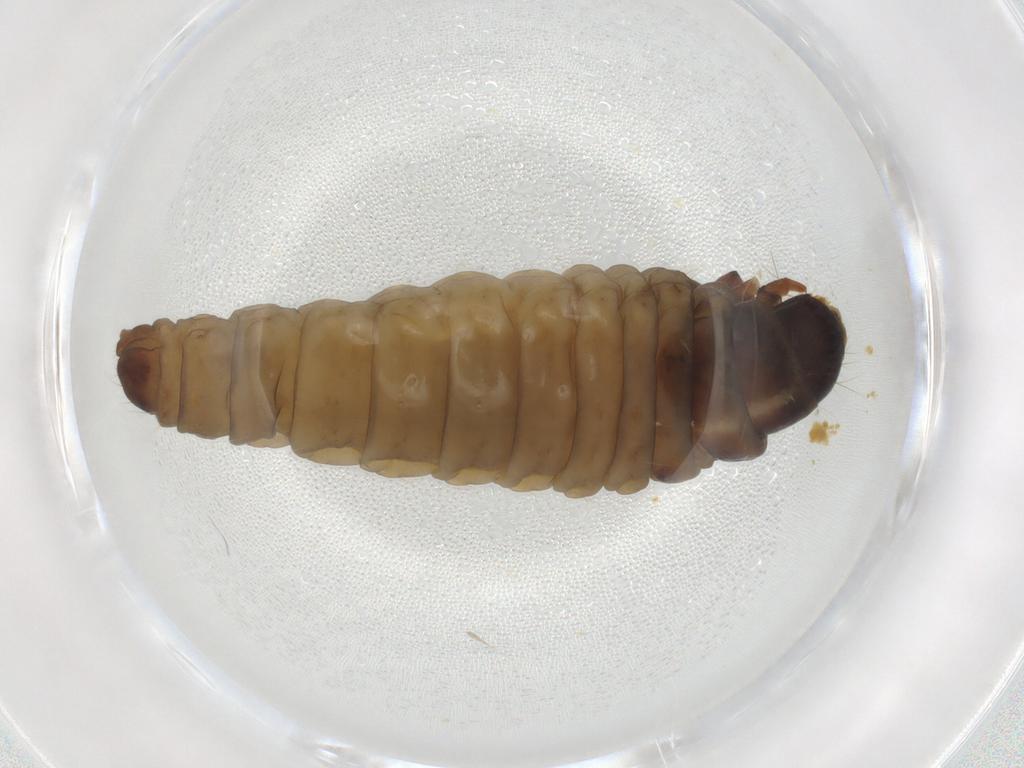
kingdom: Animalia
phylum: Arthropoda
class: Insecta
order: Lepidoptera
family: Psychidae
